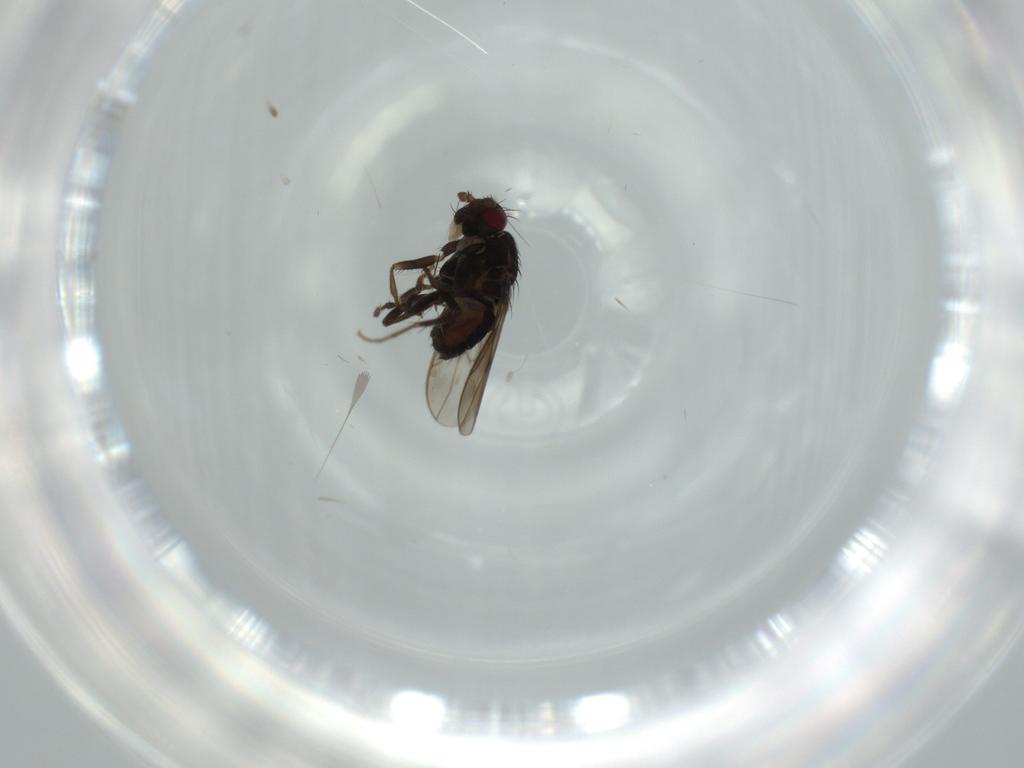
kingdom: Animalia
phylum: Arthropoda
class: Insecta
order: Diptera
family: Sphaeroceridae
